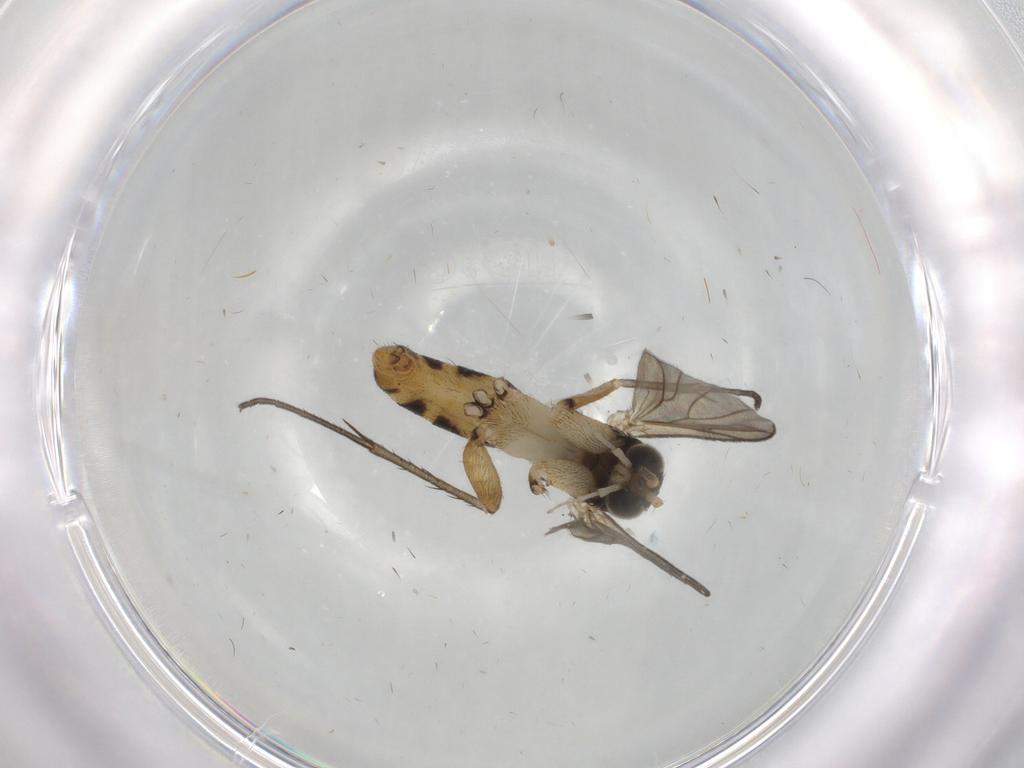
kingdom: Animalia
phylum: Arthropoda
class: Insecta
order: Diptera
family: Mycetophilidae
